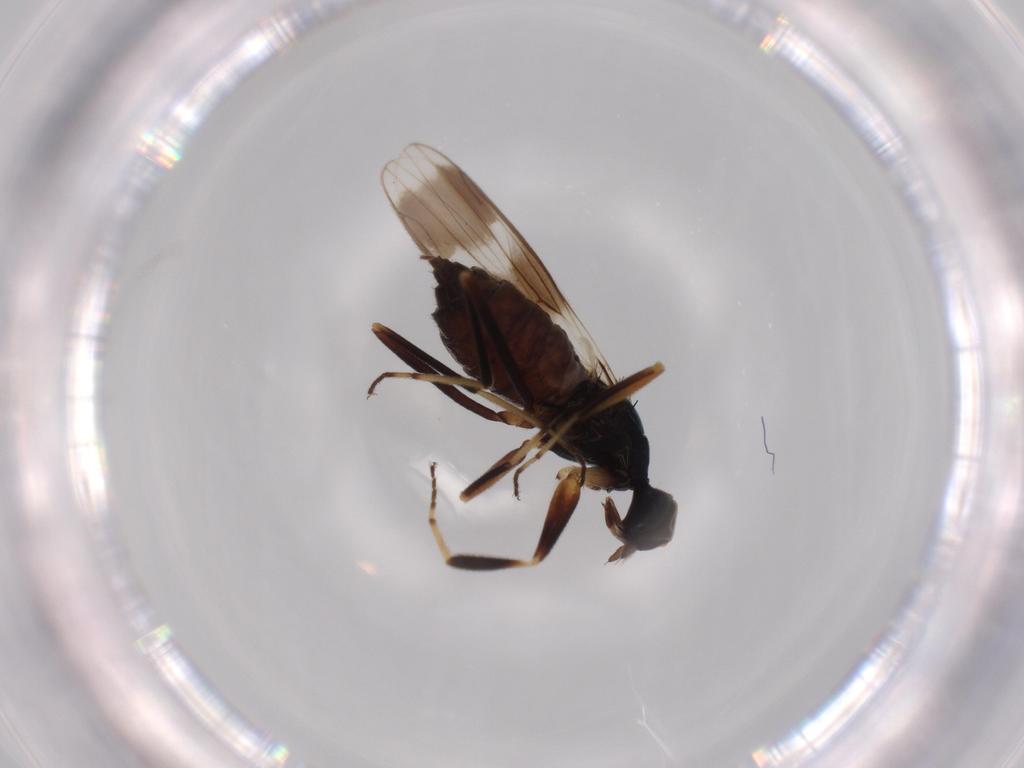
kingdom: Animalia
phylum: Arthropoda
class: Insecta
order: Diptera
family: Hybotidae
